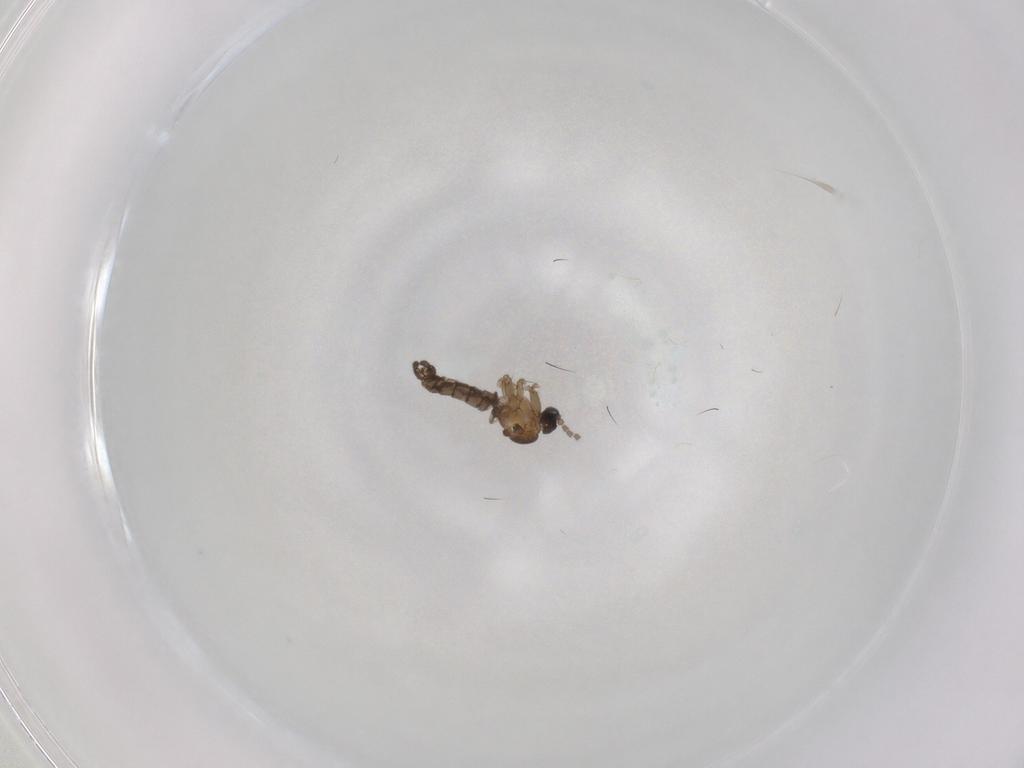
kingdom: Animalia
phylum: Arthropoda
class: Insecta
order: Diptera
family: Sciaridae
